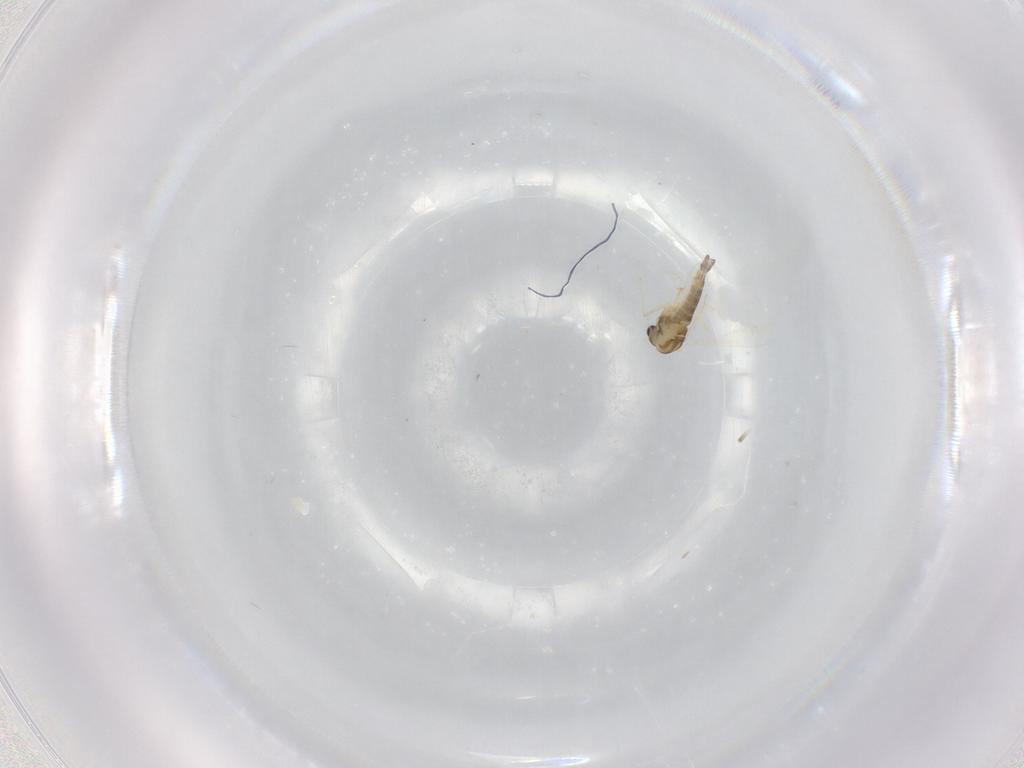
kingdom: Animalia
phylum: Arthropoda
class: Insecta
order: Diptera
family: Chironomidae
